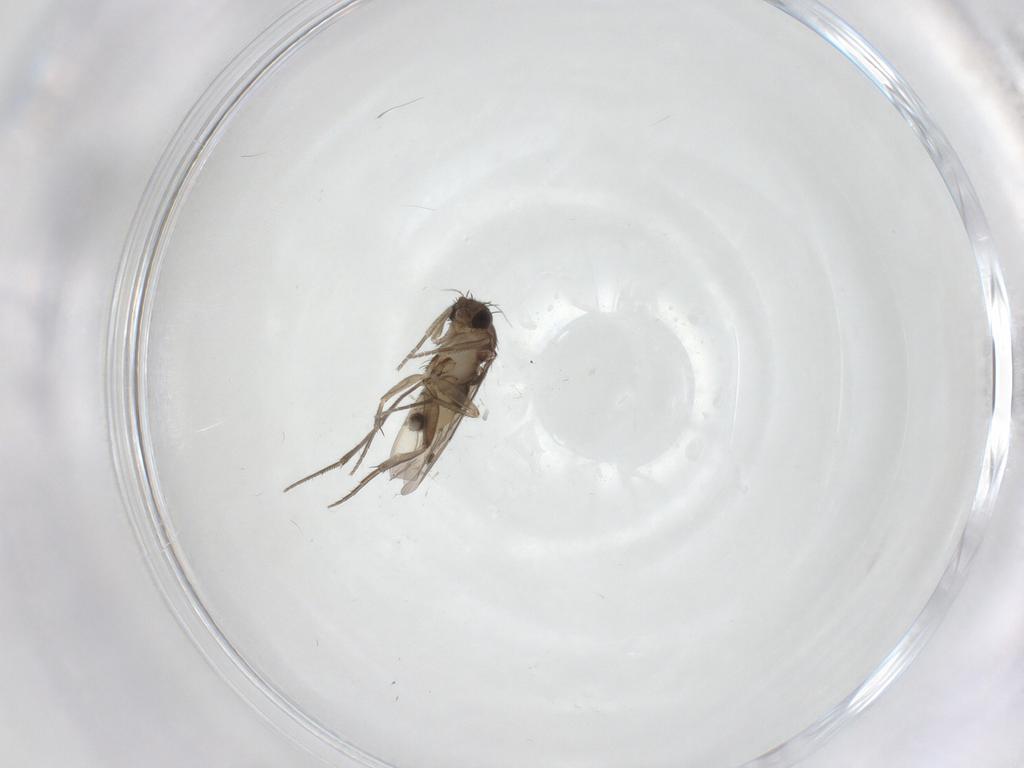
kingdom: Animalia
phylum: Arthropoda
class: Insecta
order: Diptera
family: Phoridae
